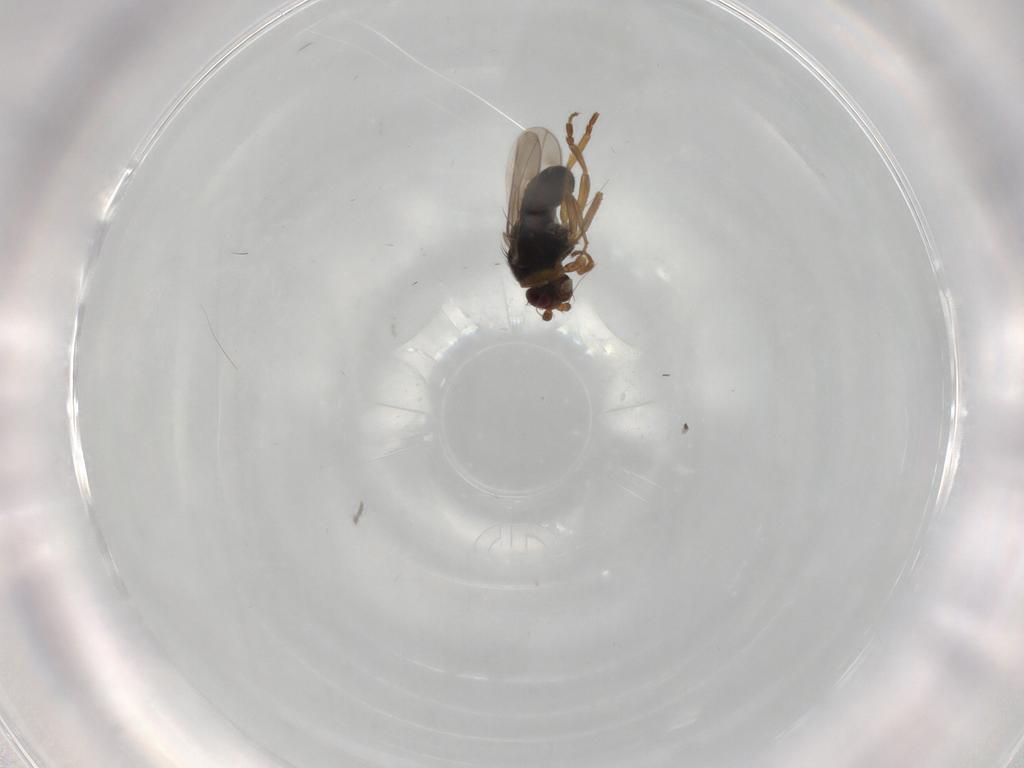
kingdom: Animalia
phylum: Arthropoda
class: Insecta
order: Diptera
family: Sphaeroceridae
